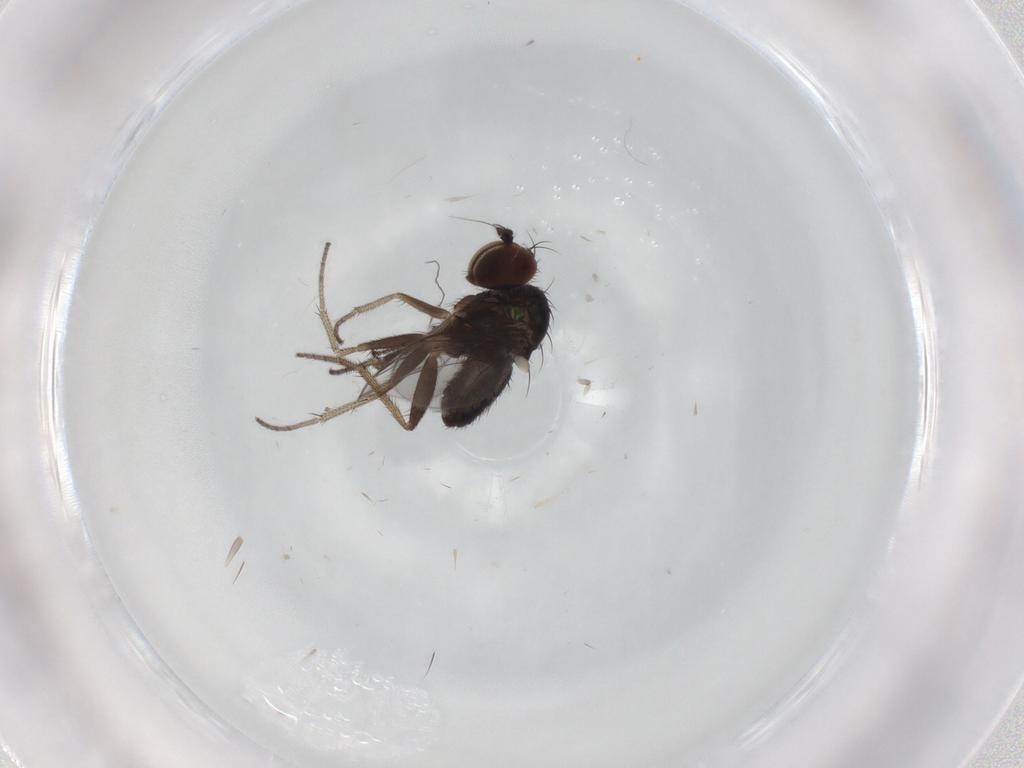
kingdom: Animalia
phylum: Arthropoda
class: Insecta
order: Diptera
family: Dolichopodidae
